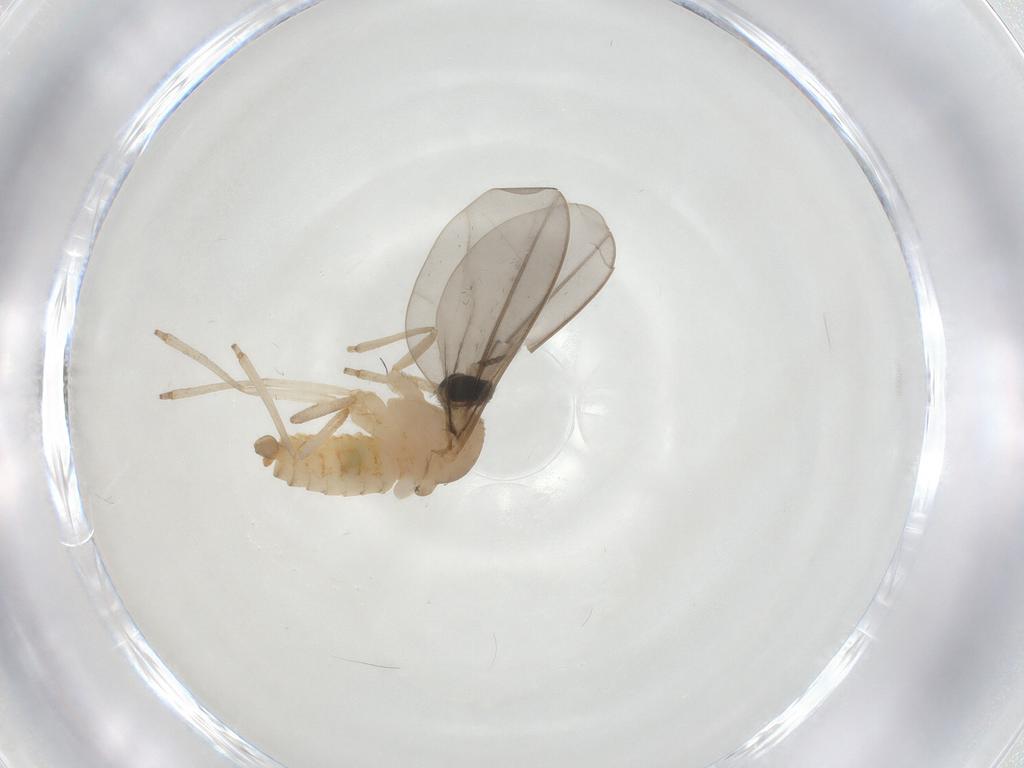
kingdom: Animalia
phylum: Arthropoda
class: Insecta
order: Diptera
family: Cecidomyiidae
